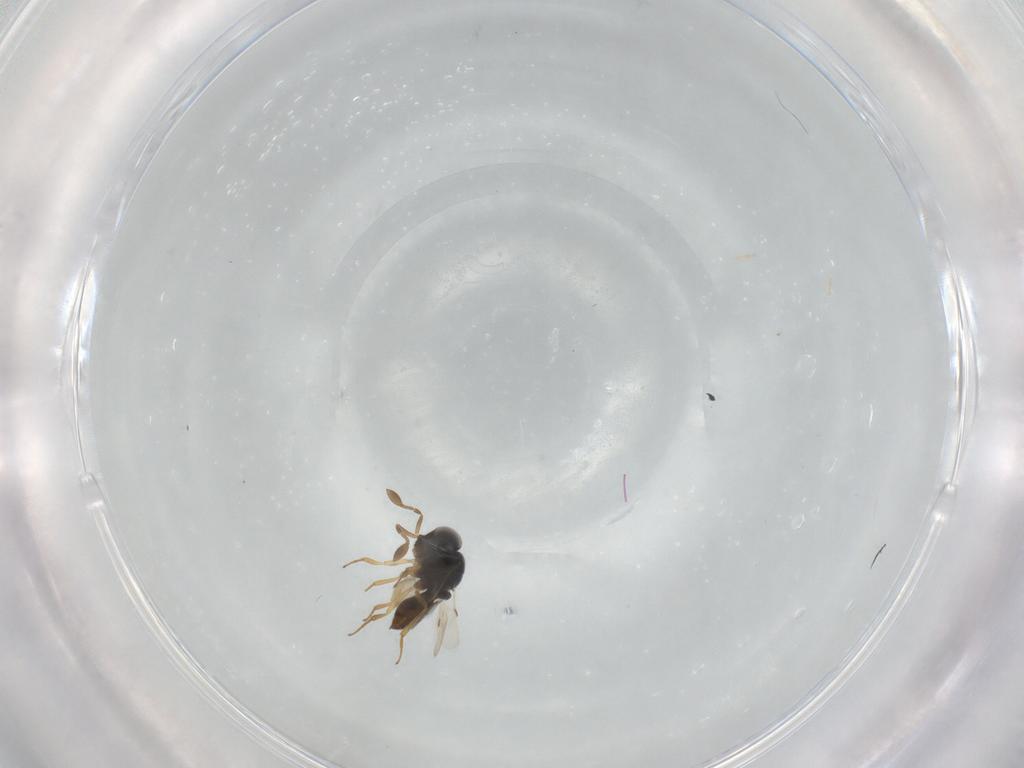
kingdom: Animalia
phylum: Arthropoda
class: Insecta
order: Hymenoptera
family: Scelionidae
